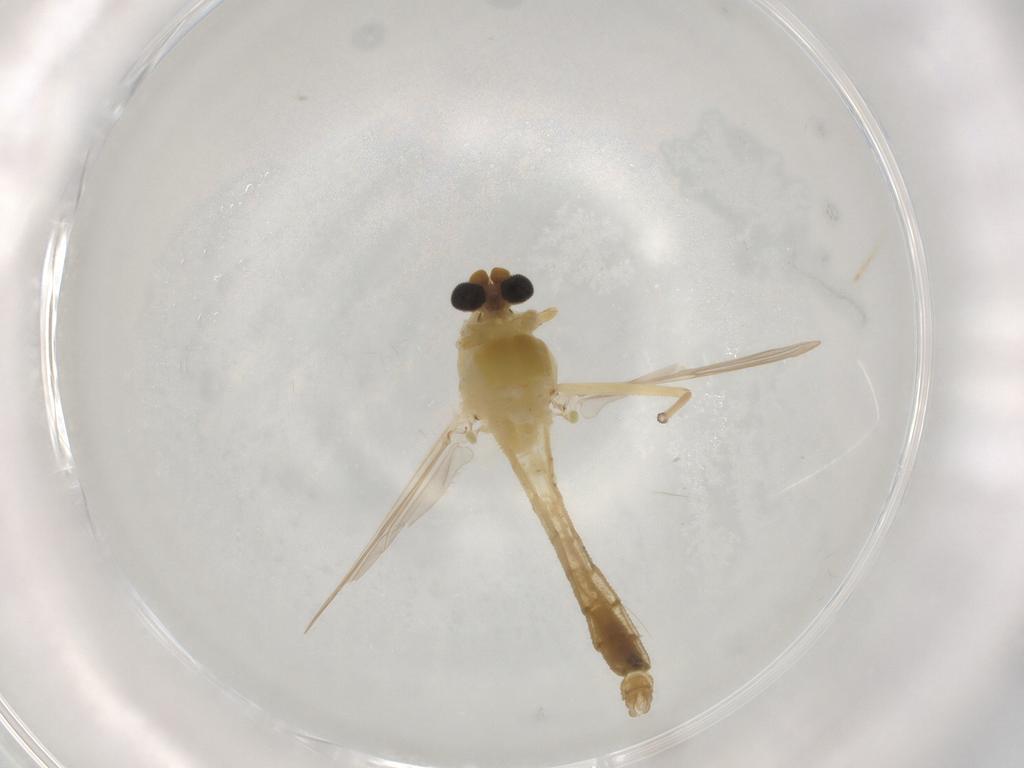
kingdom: Animalia
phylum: Arthropoda
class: Insecta
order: Diptera
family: Chironomidae
